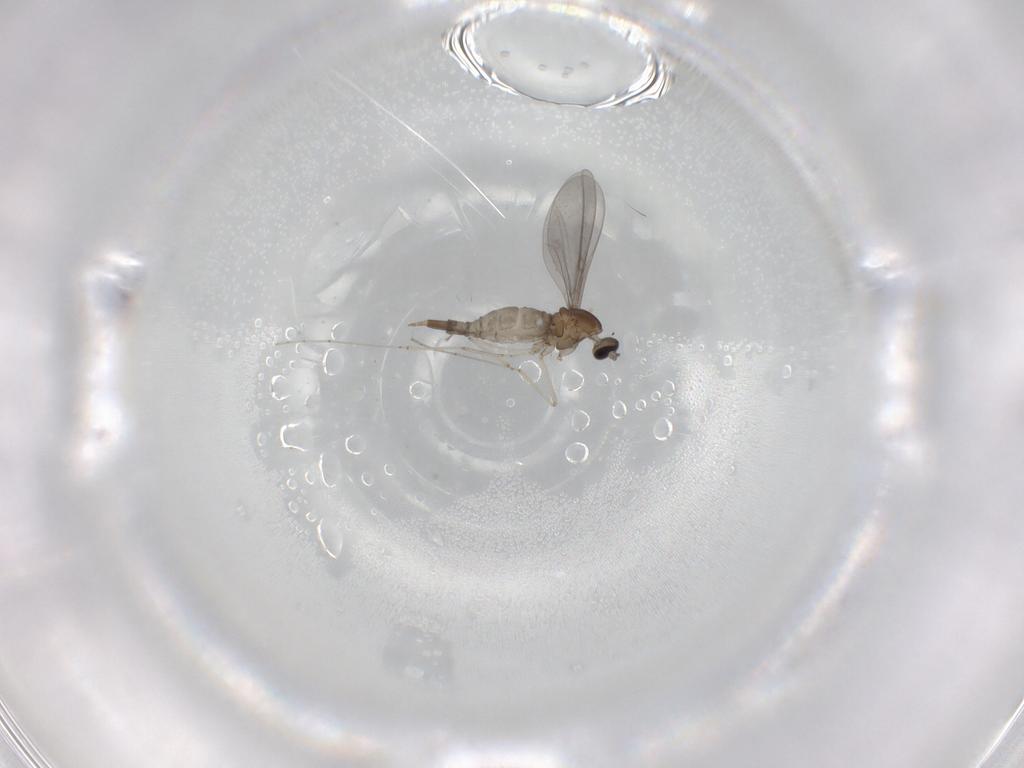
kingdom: Animalia
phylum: Arthropoda
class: Insecta
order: Diptera
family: Cecidomyiidae
